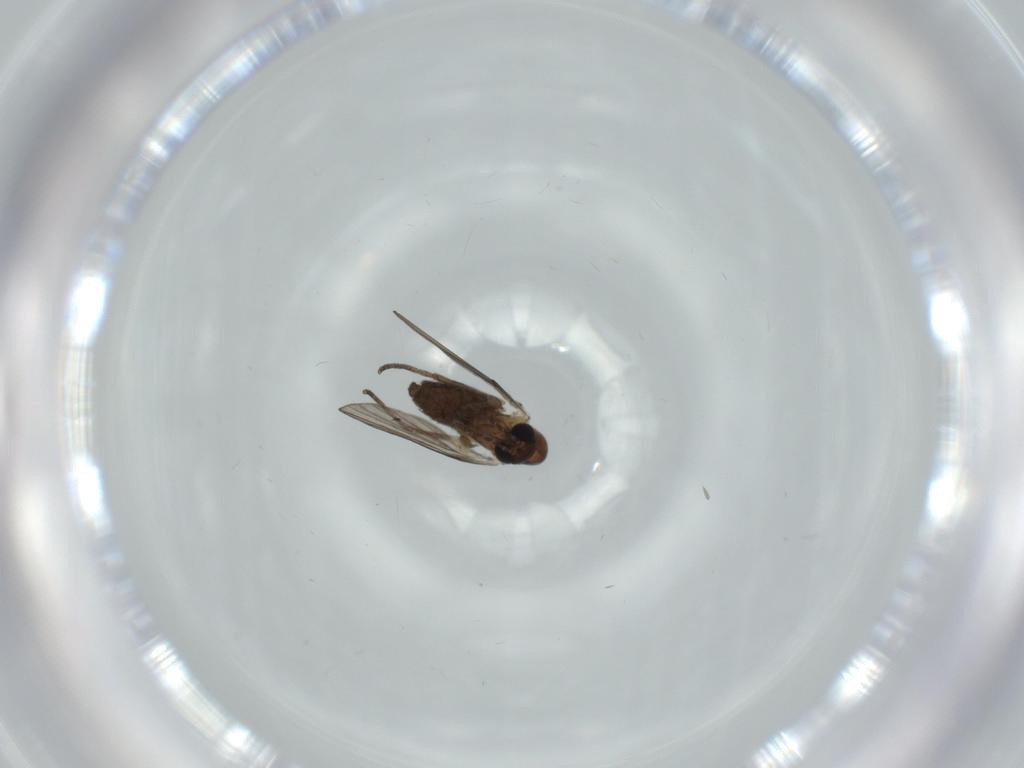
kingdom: Animalia
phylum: Arthropoda
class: Insecta
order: Diptera
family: Psychodidae
